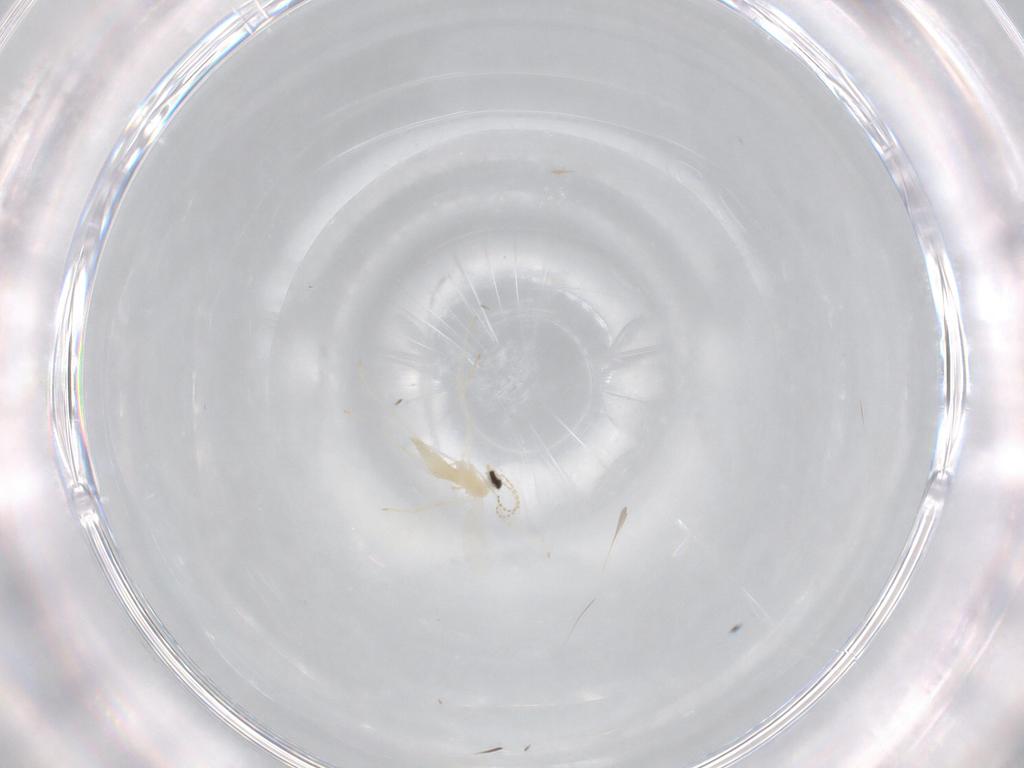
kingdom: Animalia
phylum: Arthropoda
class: Insecta
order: Diptera
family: Cecidomyiidae
